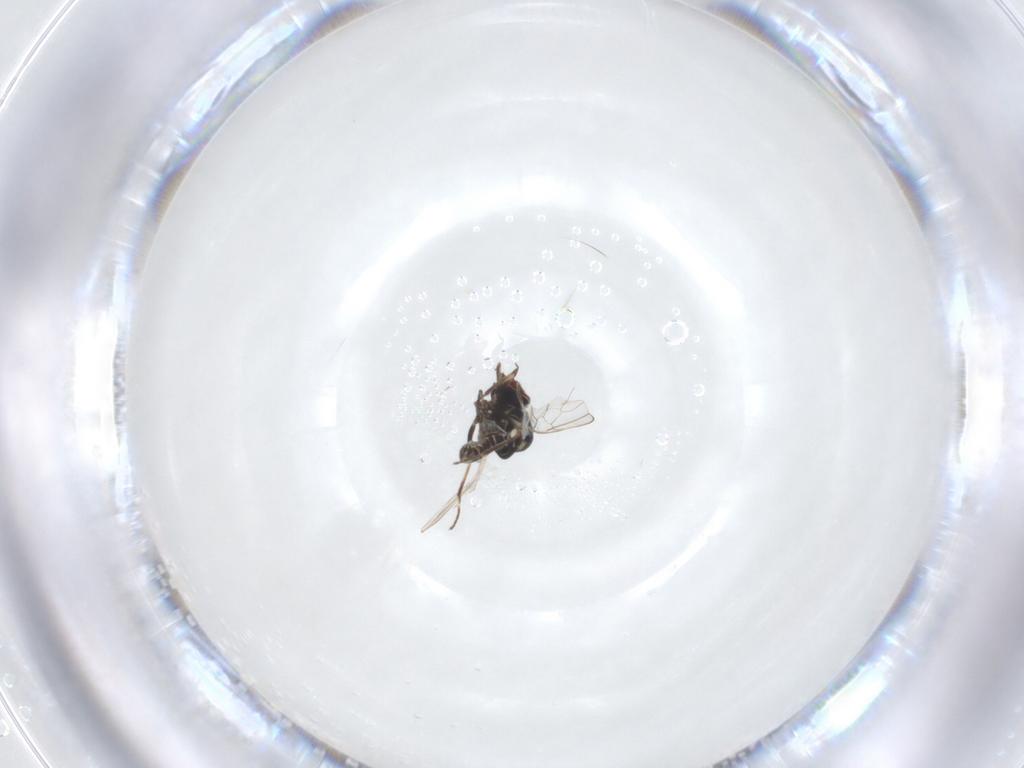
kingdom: Animalia
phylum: Arthropoda
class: Insecta
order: Diptera
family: Mythicomyiidae
